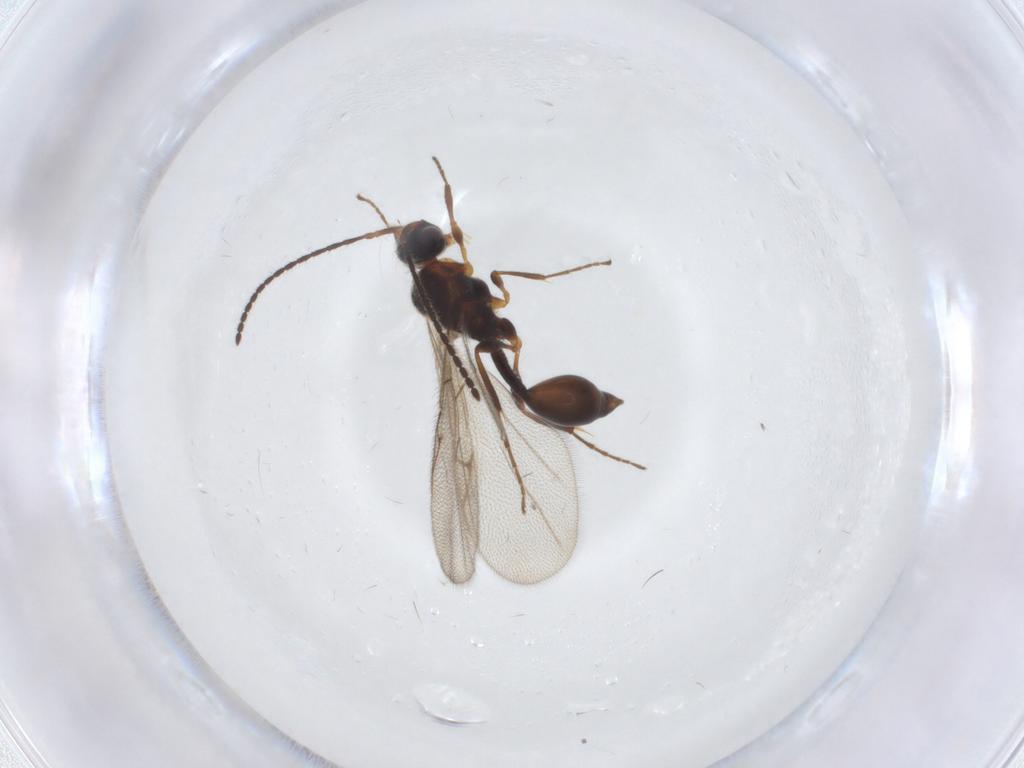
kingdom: Animalia
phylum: Arthropoda
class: Insecta
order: Hymenoptera
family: Diapriidae
